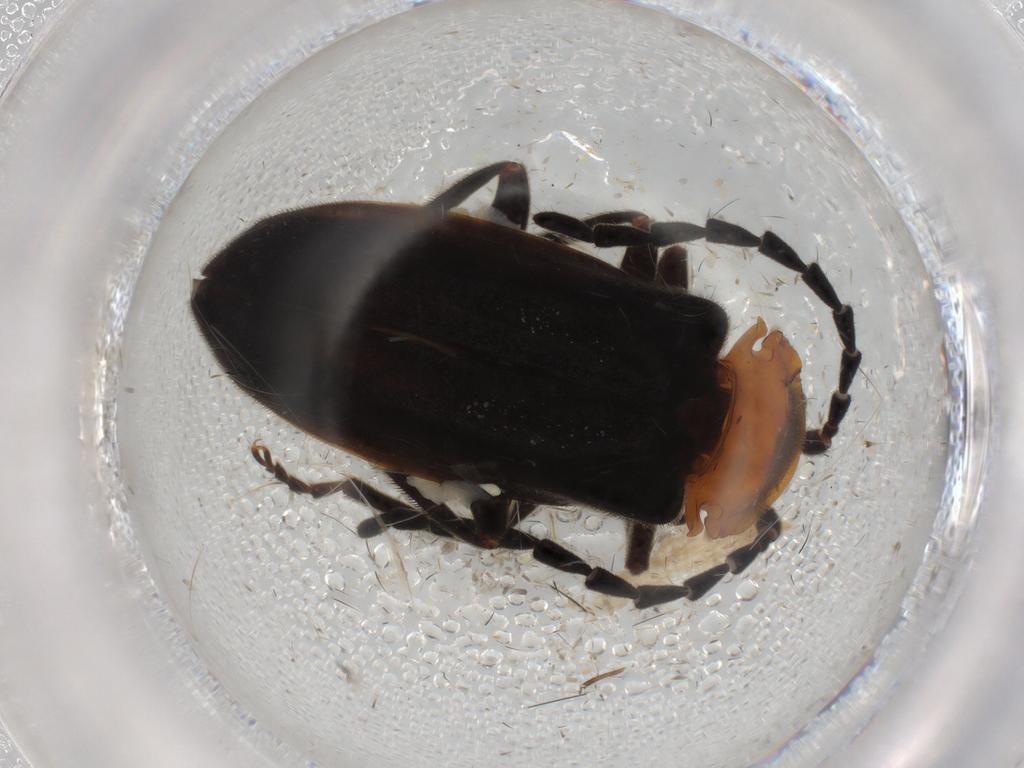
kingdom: Animalia
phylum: Arthropoda
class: Insecta
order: Coleoptera
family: Cantharidae
